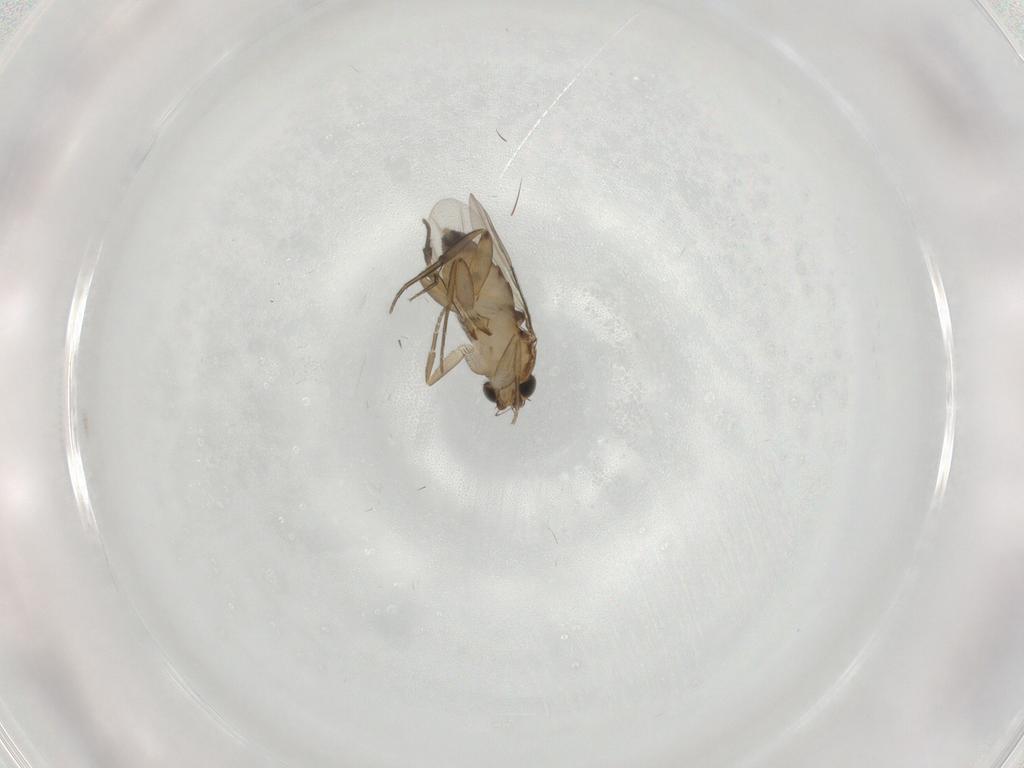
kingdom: Animalia
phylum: Arthropoda
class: Insecta
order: Diptera
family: Phoridae
